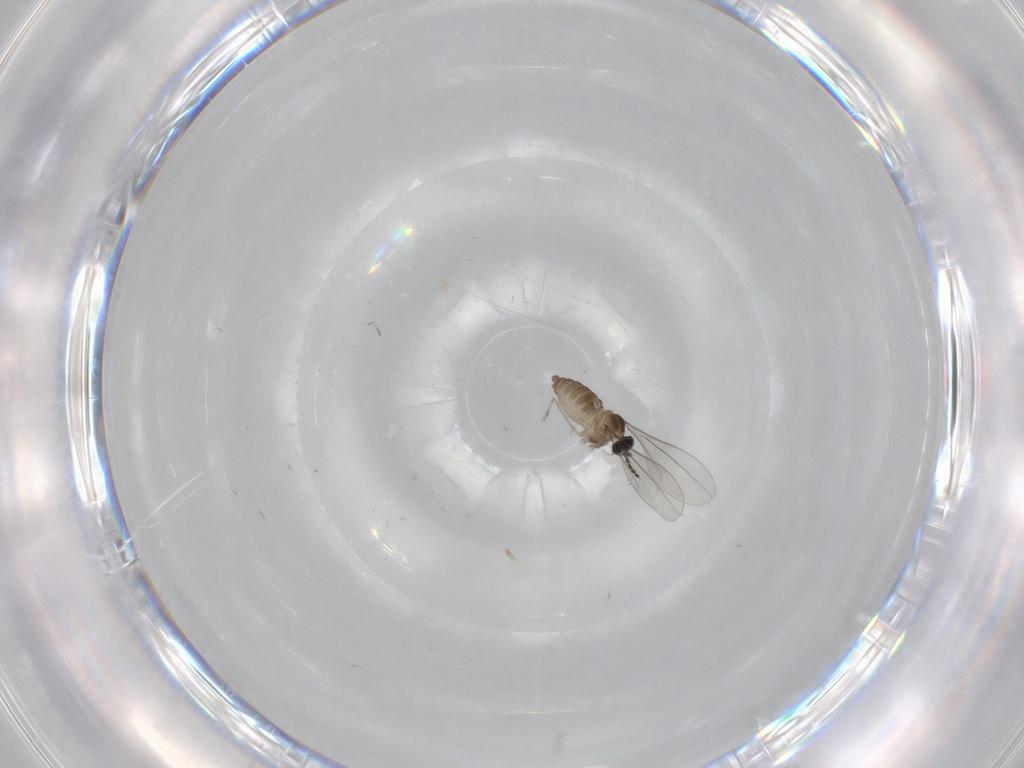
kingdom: Animalia
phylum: Arthropoda
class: Insecta
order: Diptera
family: Cecidomyiidae
